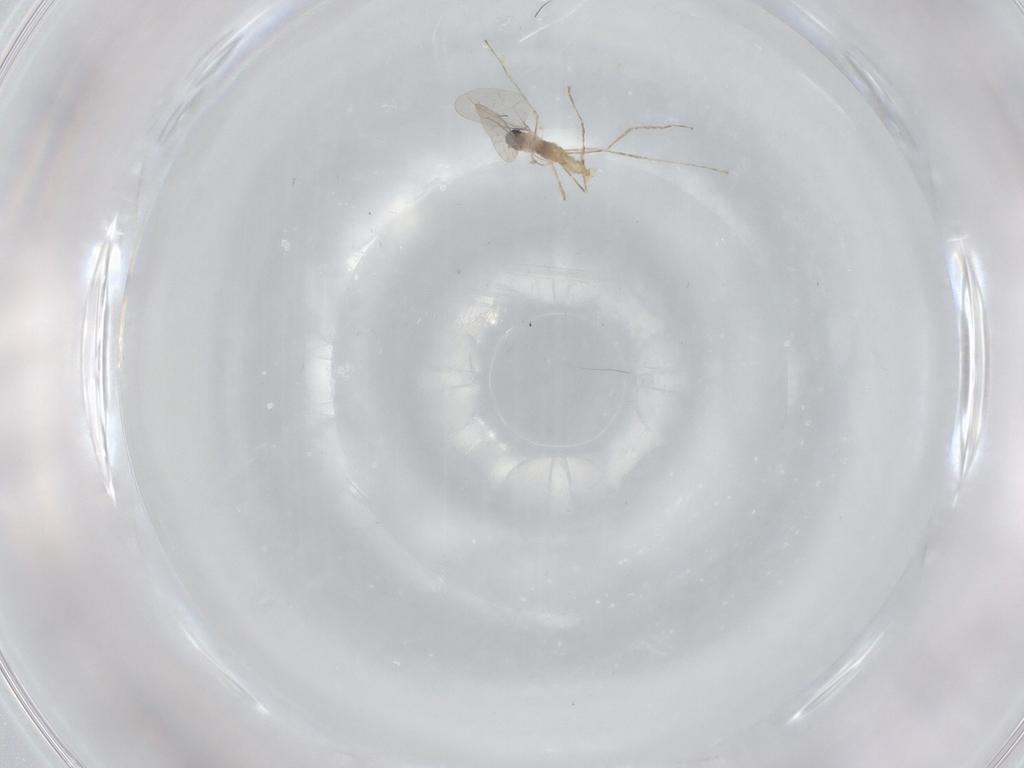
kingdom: Animalia
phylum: Arthropoda
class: Insecta
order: Diptera
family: Cecidomyiidae
